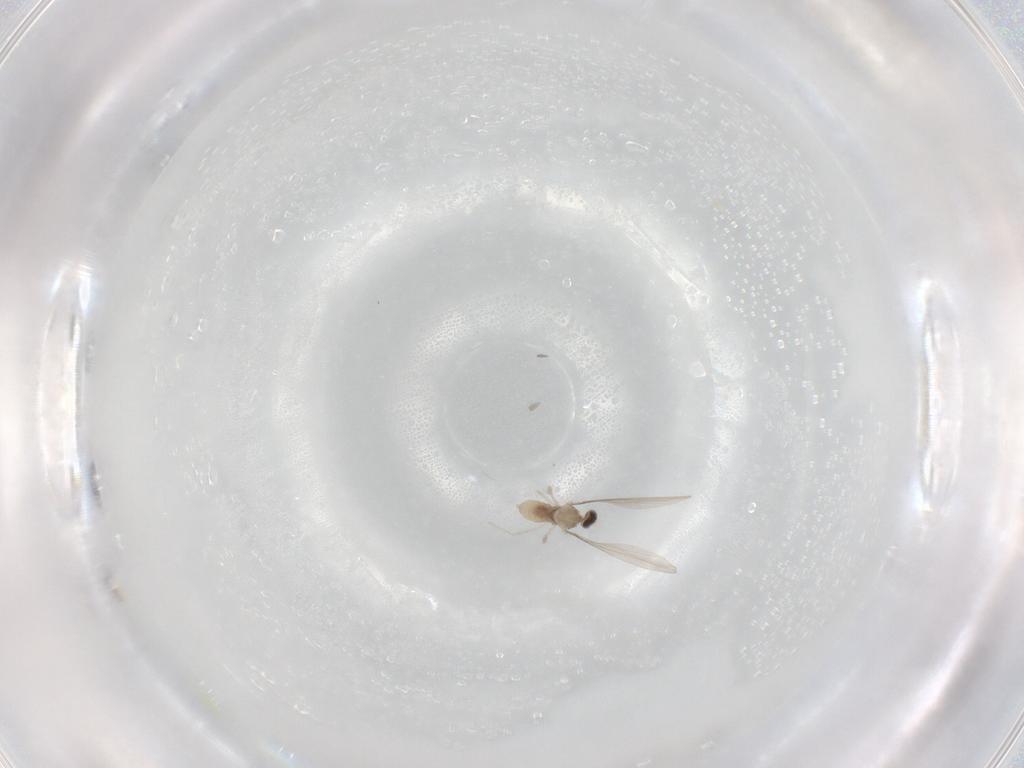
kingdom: Animalia
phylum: Arthropoda
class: Insecta
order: Diptera
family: Cecidomyiidae
